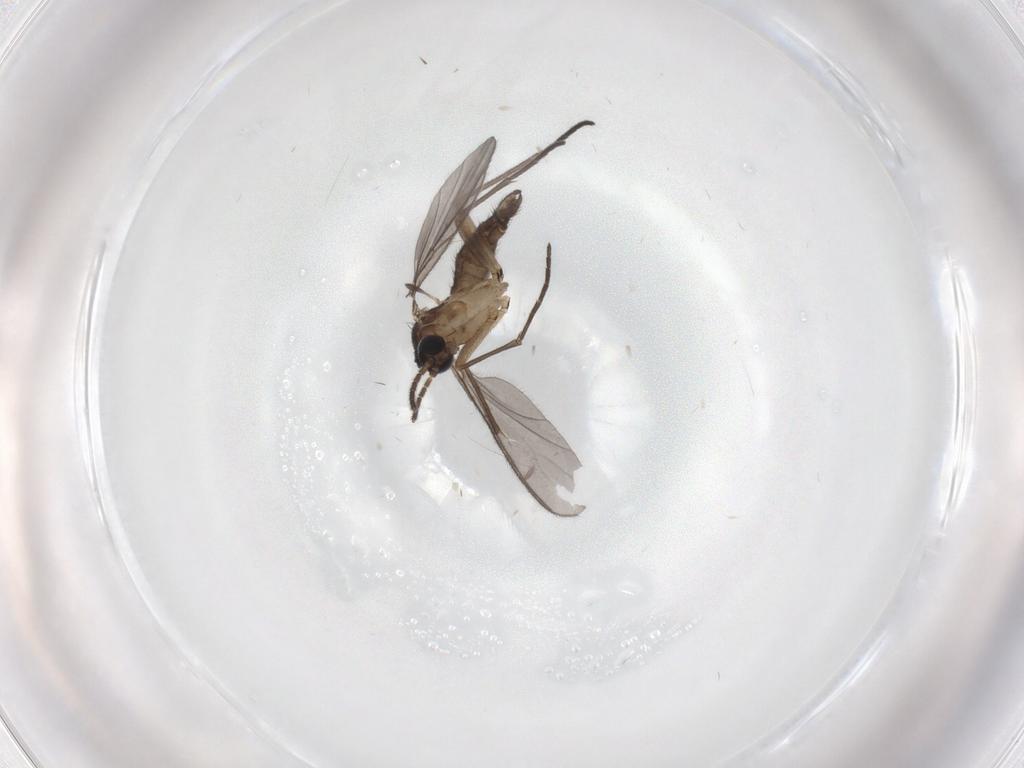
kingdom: Animalia
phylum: Arthropoda
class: Insecta
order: Diptera
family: Sciaridae
